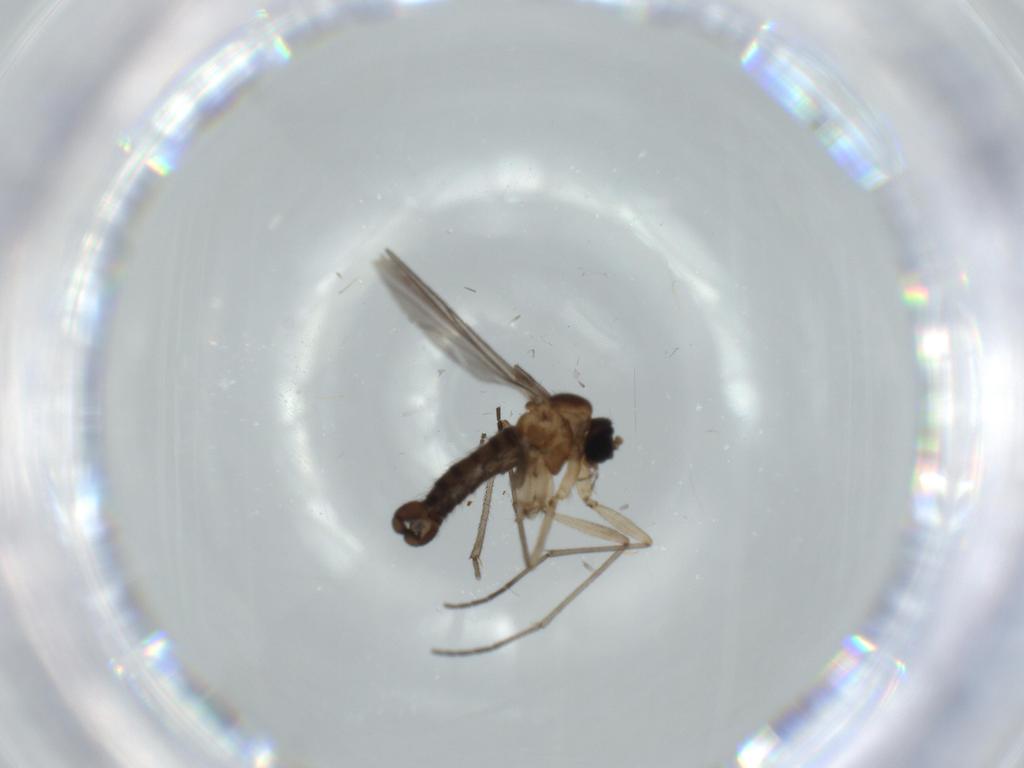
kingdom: Animalia
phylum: Arthropoda
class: Insecta
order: Diptera
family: Sciaridae
